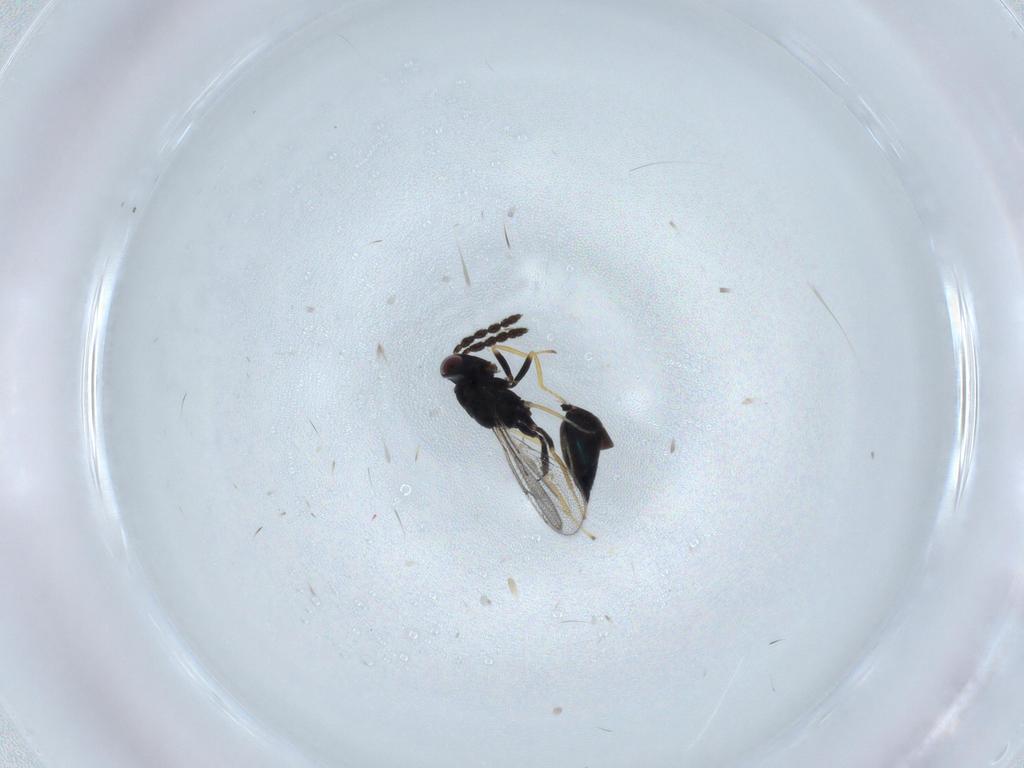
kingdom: Animalia
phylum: Arthropoda
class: Insecta
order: Hymenoptera
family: Eulophidae
